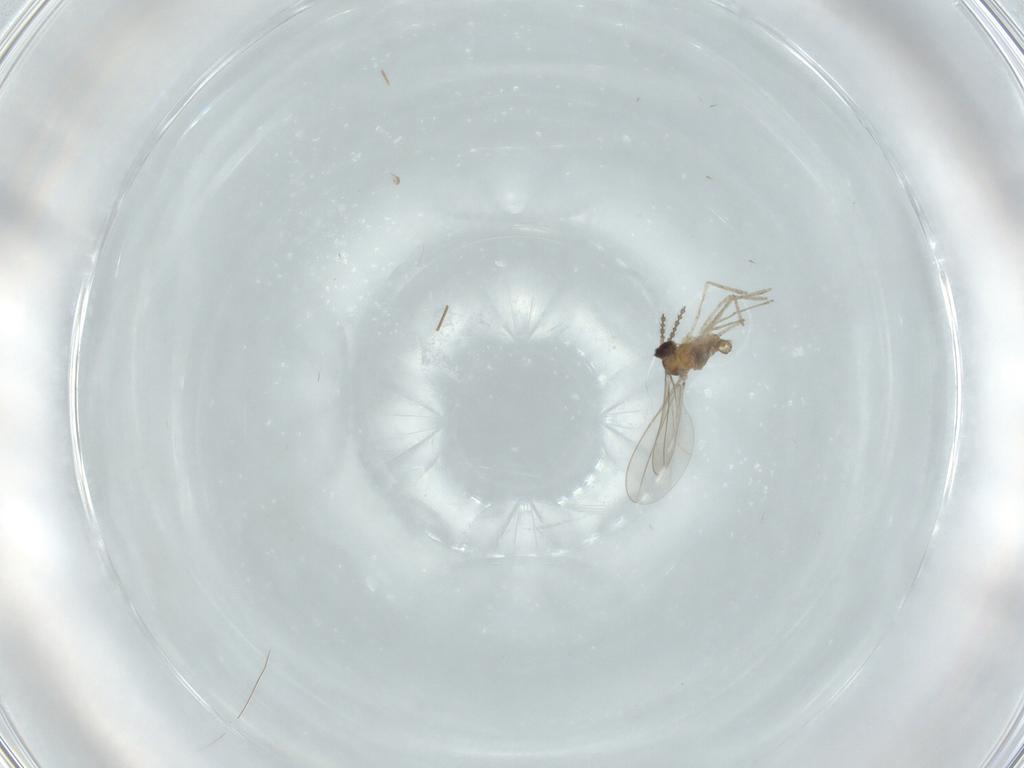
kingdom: Animalia
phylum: Arthropoda
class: Insecta
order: Diptera
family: Cecidomyiidae
